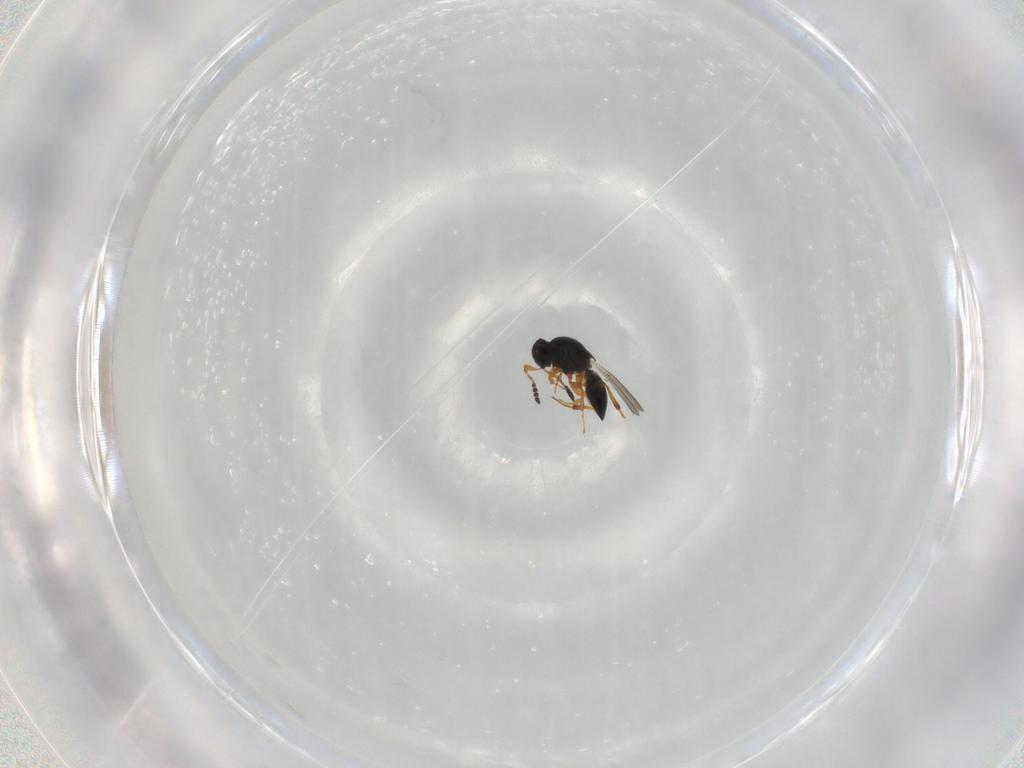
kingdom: Animalia
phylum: Arthropoda
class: Insecta
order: Hymenoptera
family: Platygastridae
